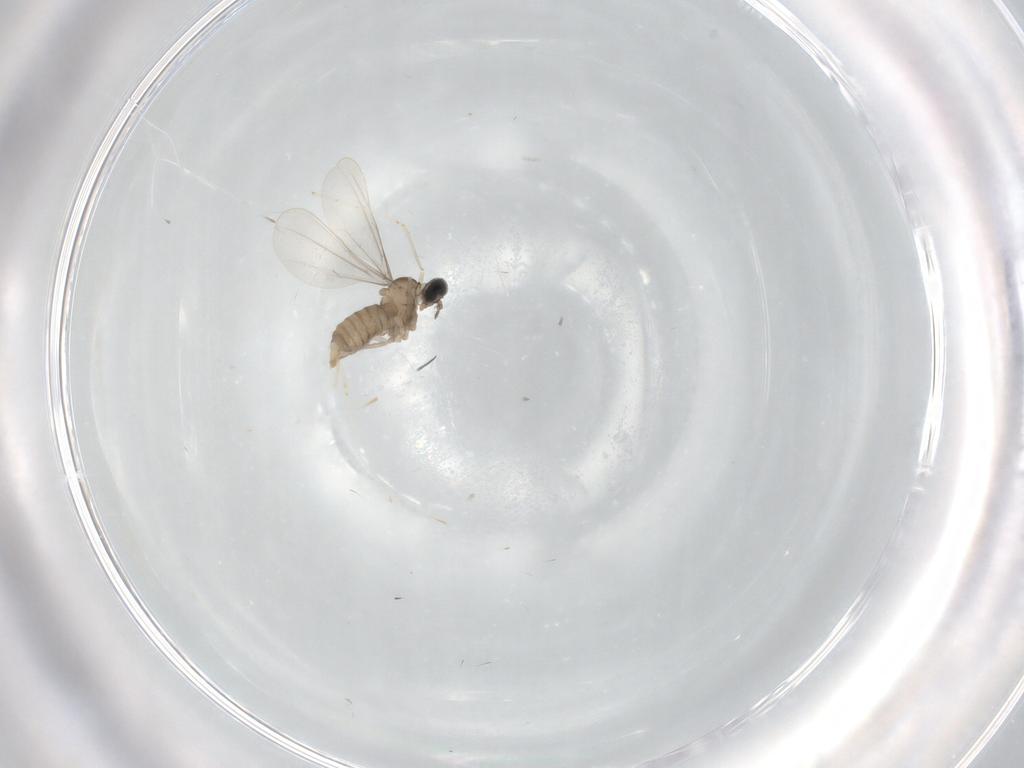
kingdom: Animalia
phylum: Arthropoda
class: Insecta
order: Diptera
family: Cecidomyiidae
